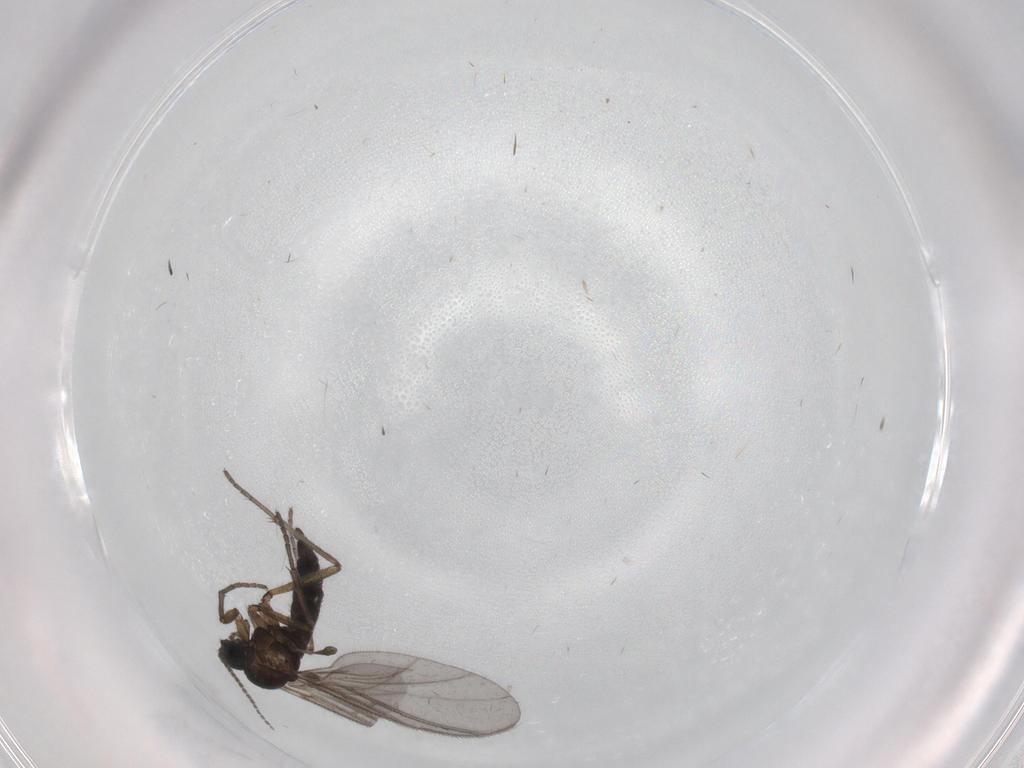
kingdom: Animalia
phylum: Arthropoda
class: Insecta
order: Diptera
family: Sciaridae
